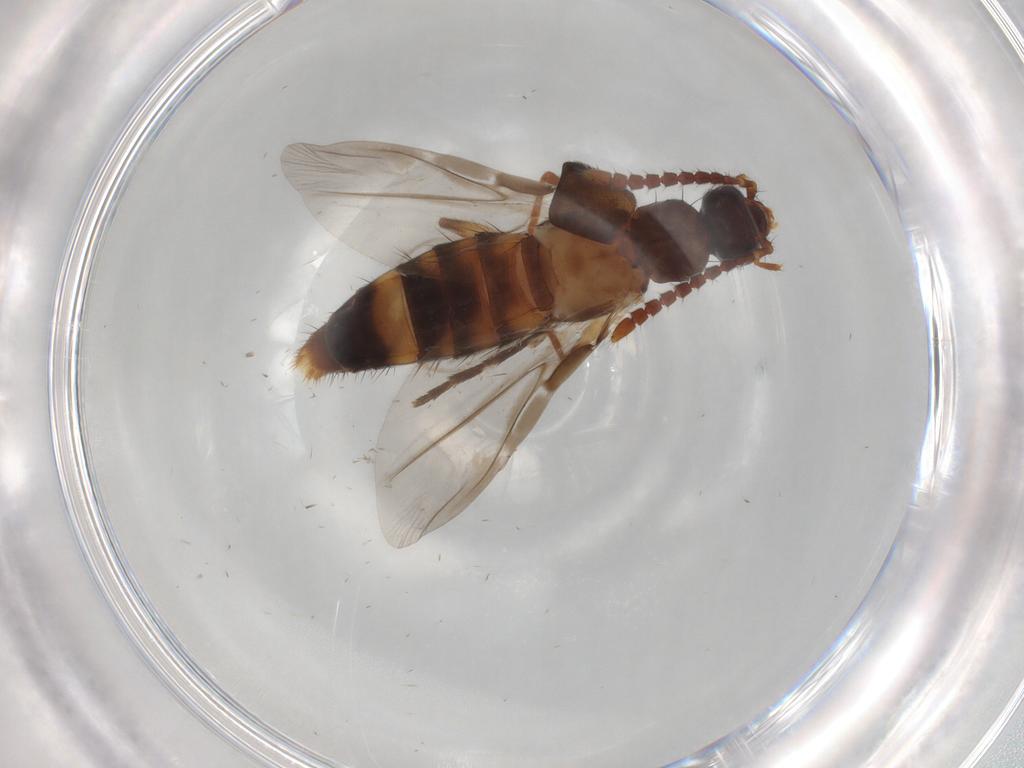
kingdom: Animalia
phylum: Arthropoda
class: Insecta
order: Coleoptera
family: Staphylinidae
